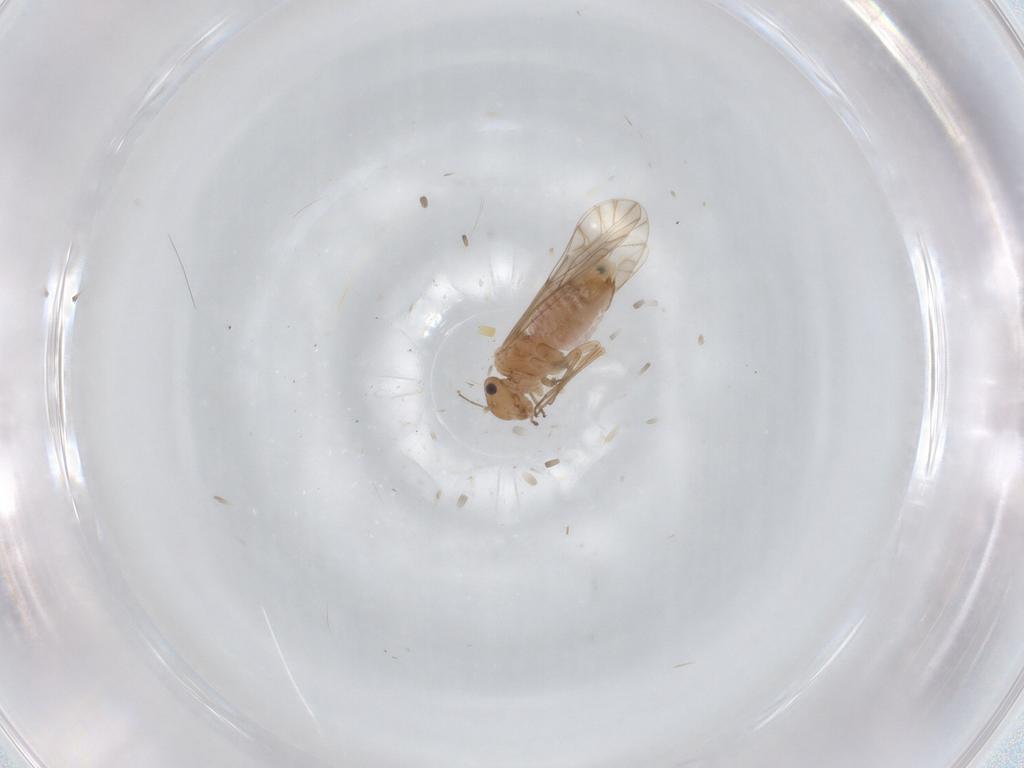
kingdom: Animalia
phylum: Arthropoda
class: Insecta
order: Psocodea
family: Lachesillidae
